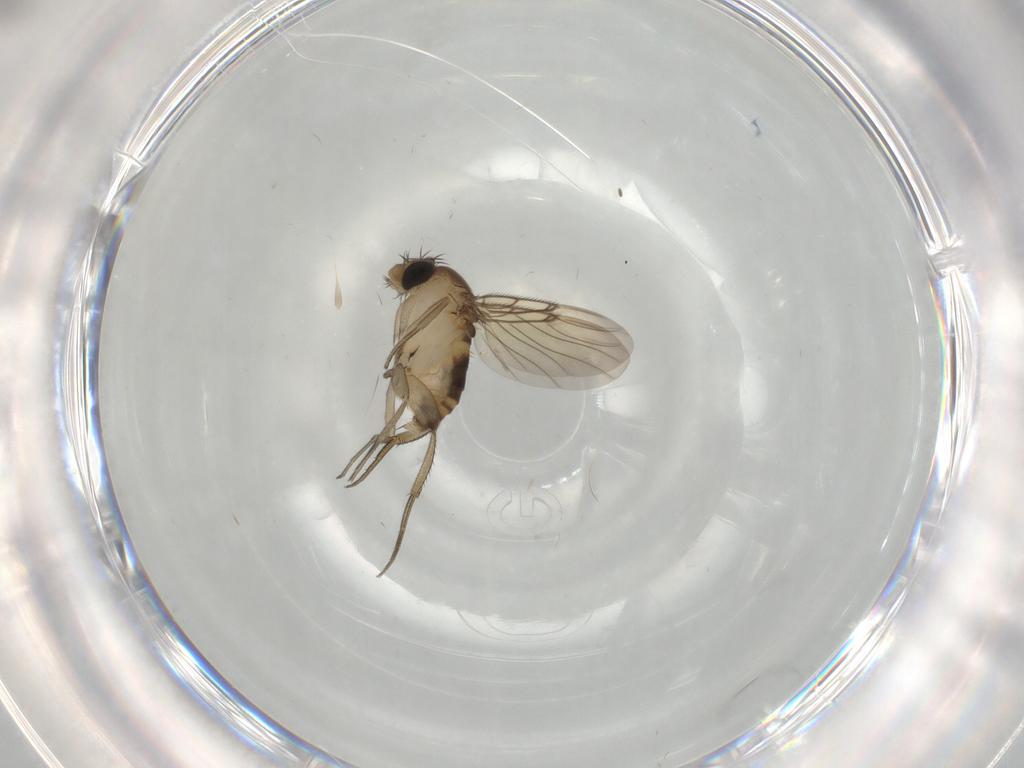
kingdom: Animalia
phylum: Arthropoda
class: Insecta
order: Diptera
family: Phoridae
